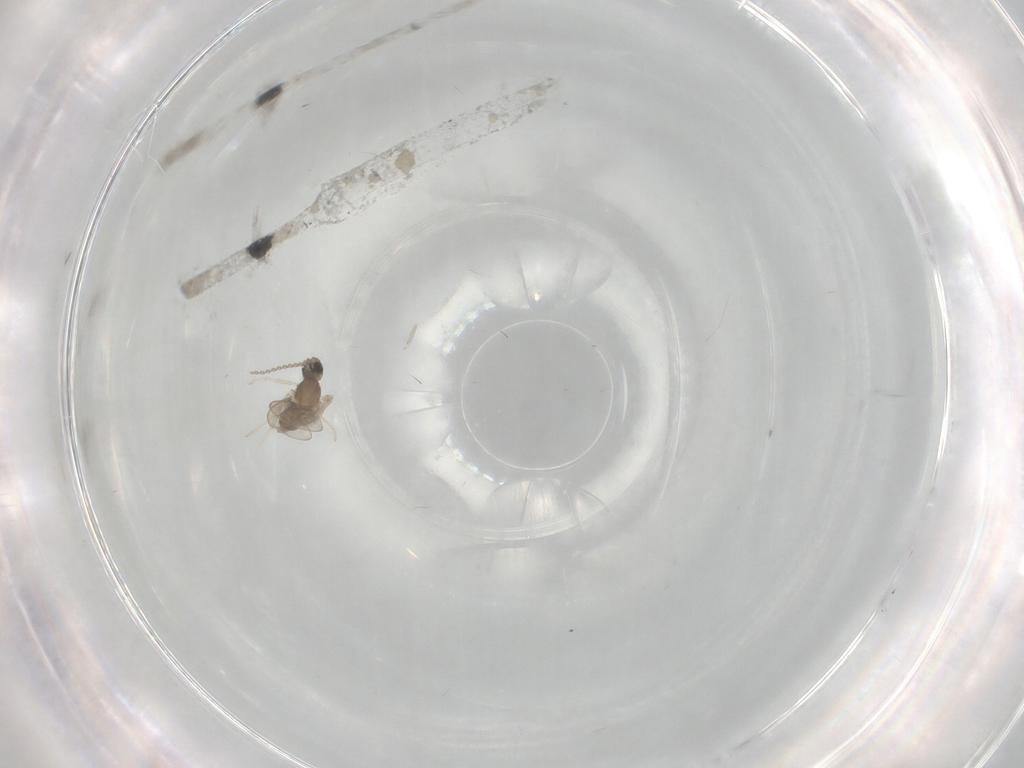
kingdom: Animalia
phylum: Arthropoda
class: Insecta
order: Diptera
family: Cecidomyiidae
